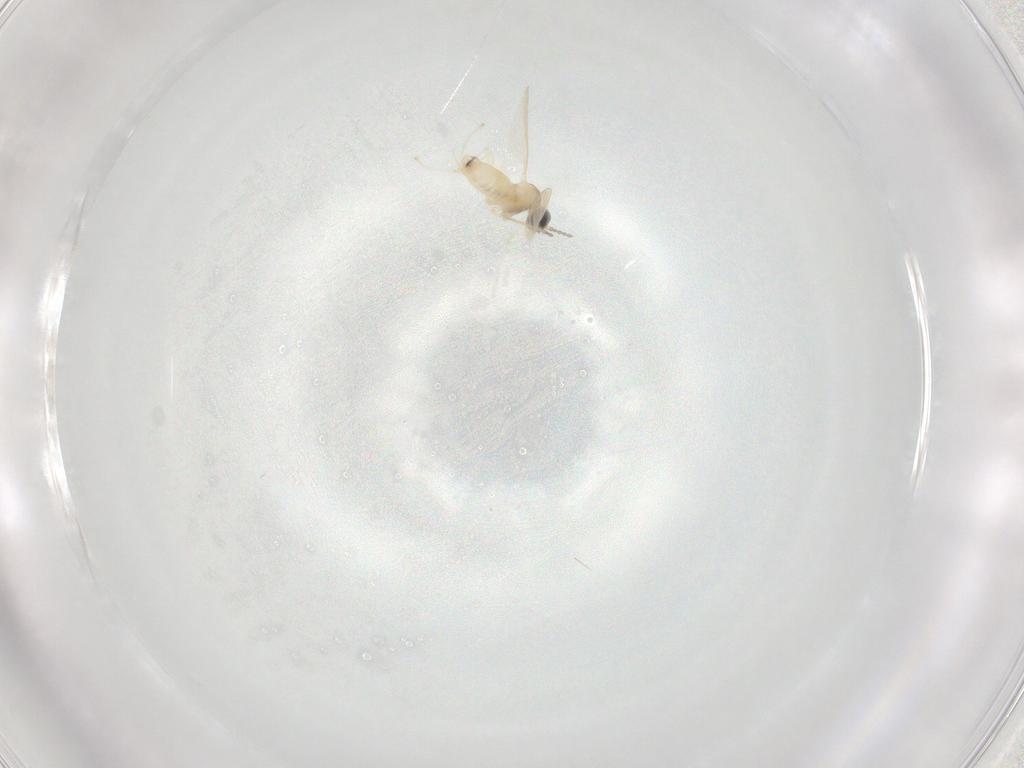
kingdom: Animalia
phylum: Arthropoda
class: Insecta
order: Diptera
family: Cecidomyiidae
